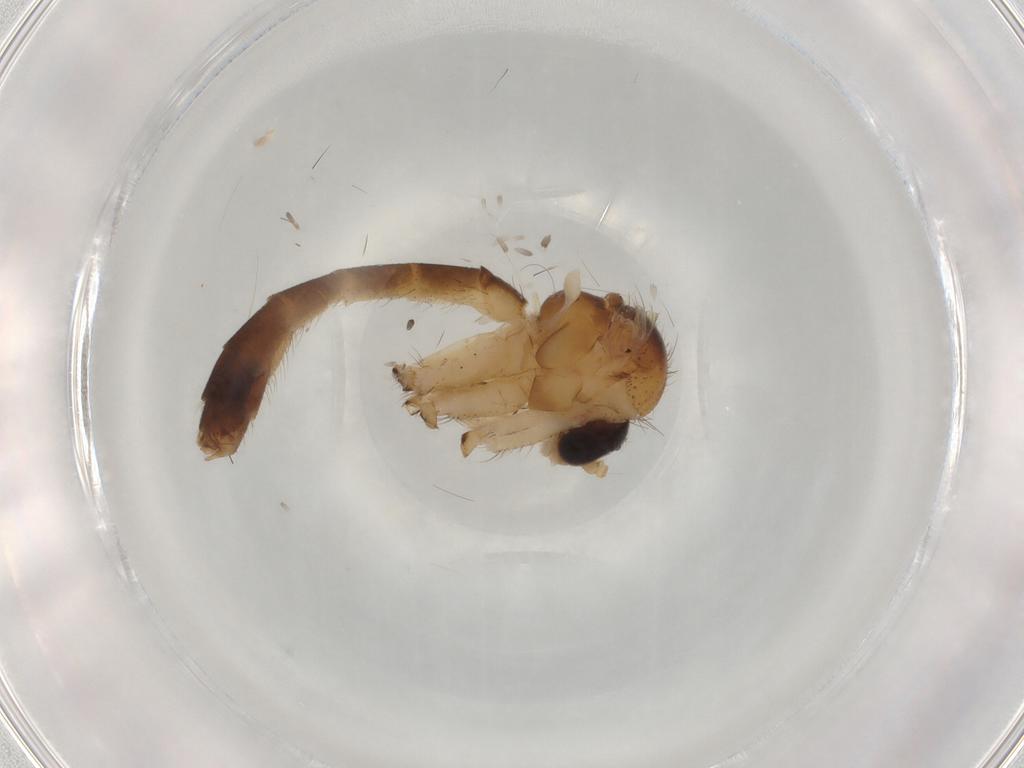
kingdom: Animalia
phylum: Arthropoda
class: Insecta
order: Diptera
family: Mycetophilidae
